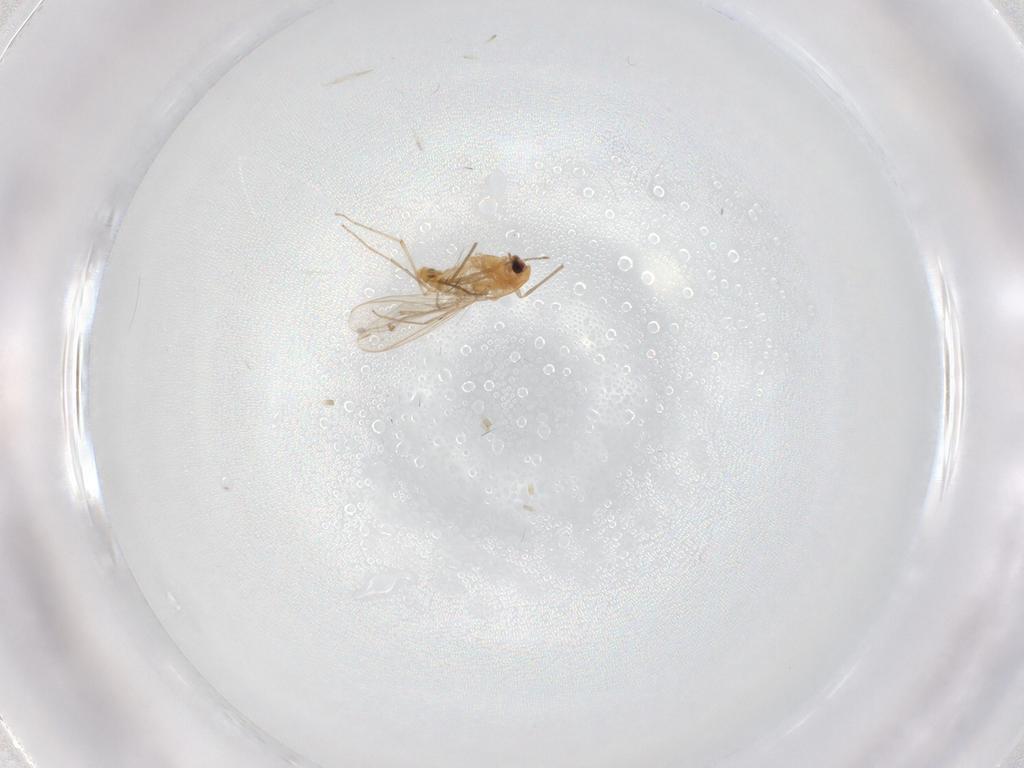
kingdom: Animalia
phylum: Arthropoda
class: Insecta
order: Diptera
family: Chironomidae
